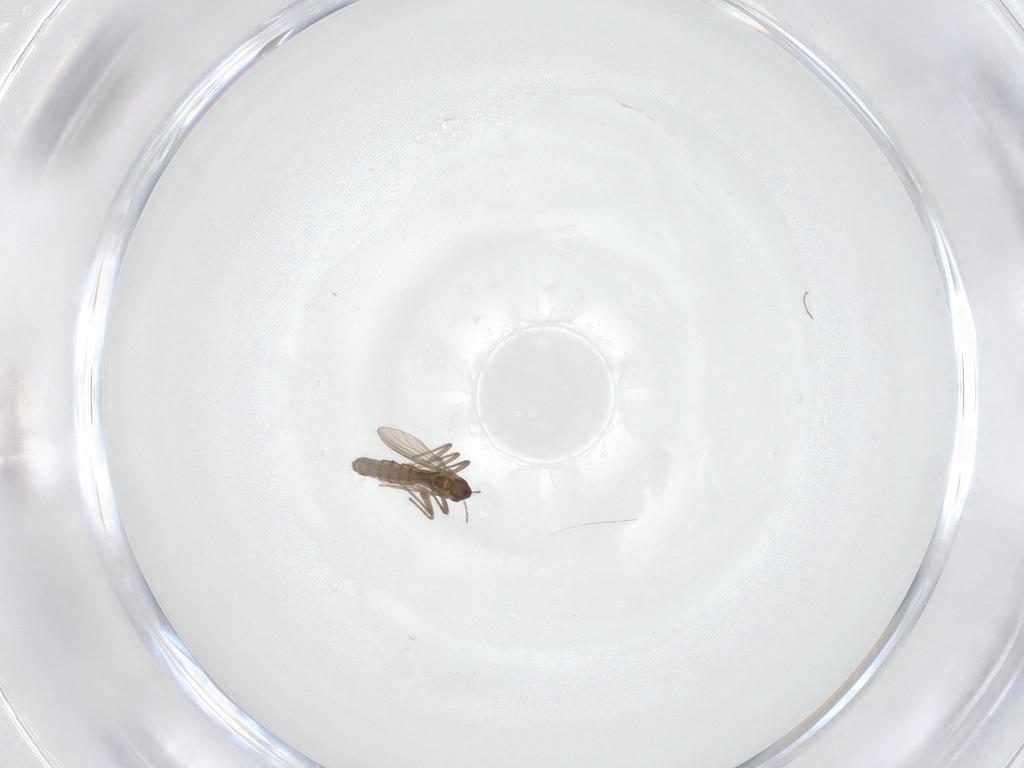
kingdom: Animalia
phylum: Arthropoda
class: Insecta
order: Diptera
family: Chironomidae
